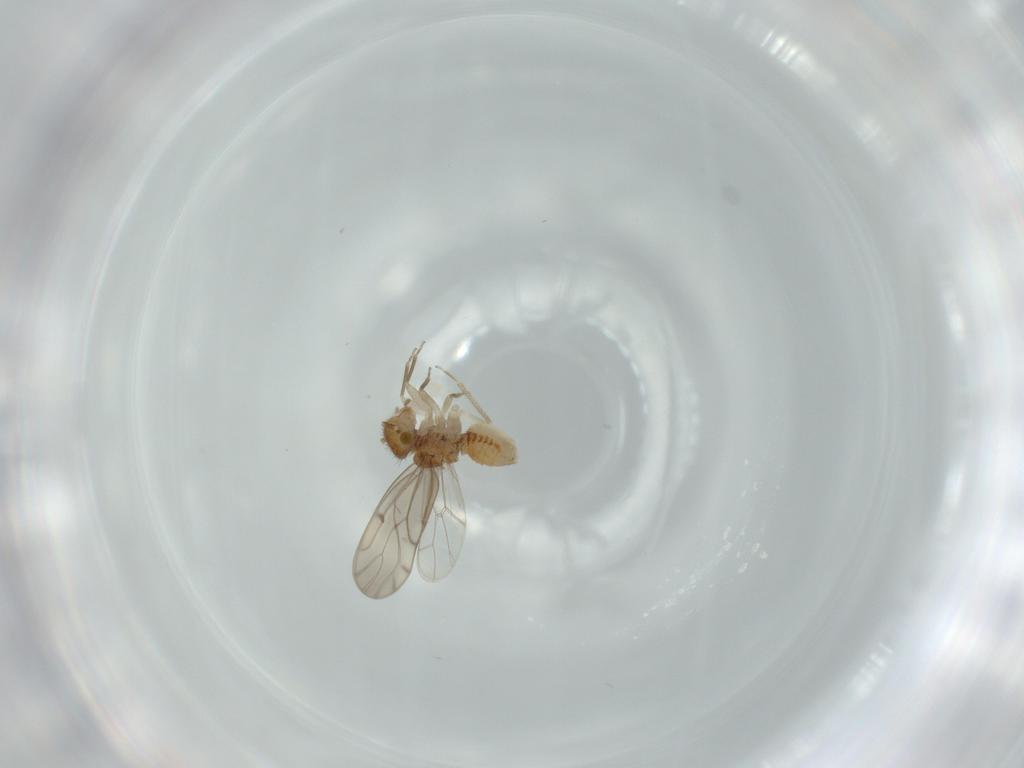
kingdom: Animalia
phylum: Arthropoda
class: Insecta
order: Psocodea
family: Ectopsocidae
